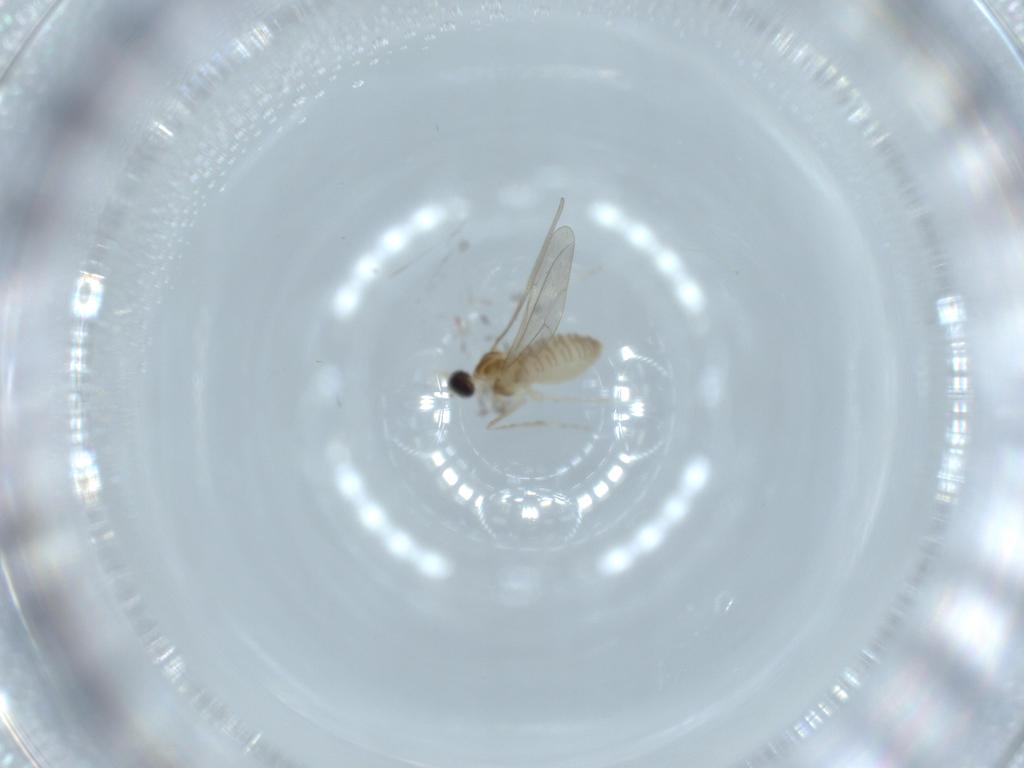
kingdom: Animalia
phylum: Arthropoda
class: Insecta
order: Diptera
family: Cecidomyiidae
